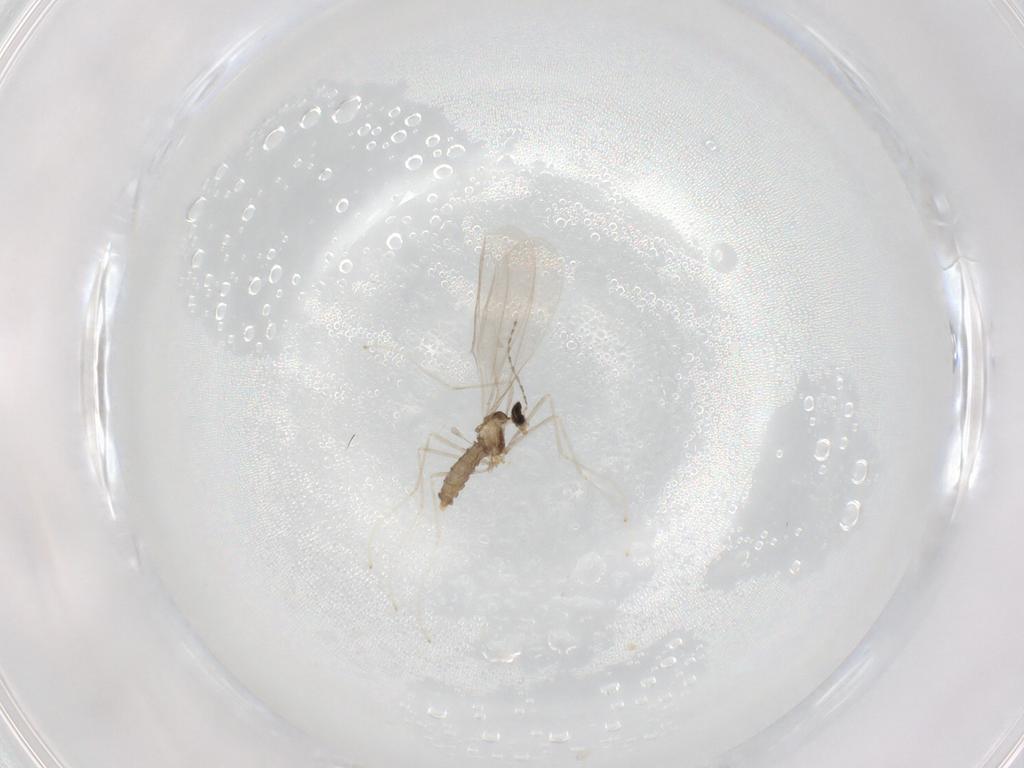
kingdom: Animalia
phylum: Arthropoda
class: Insecta
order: Diptera
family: Cecidomyiidae
